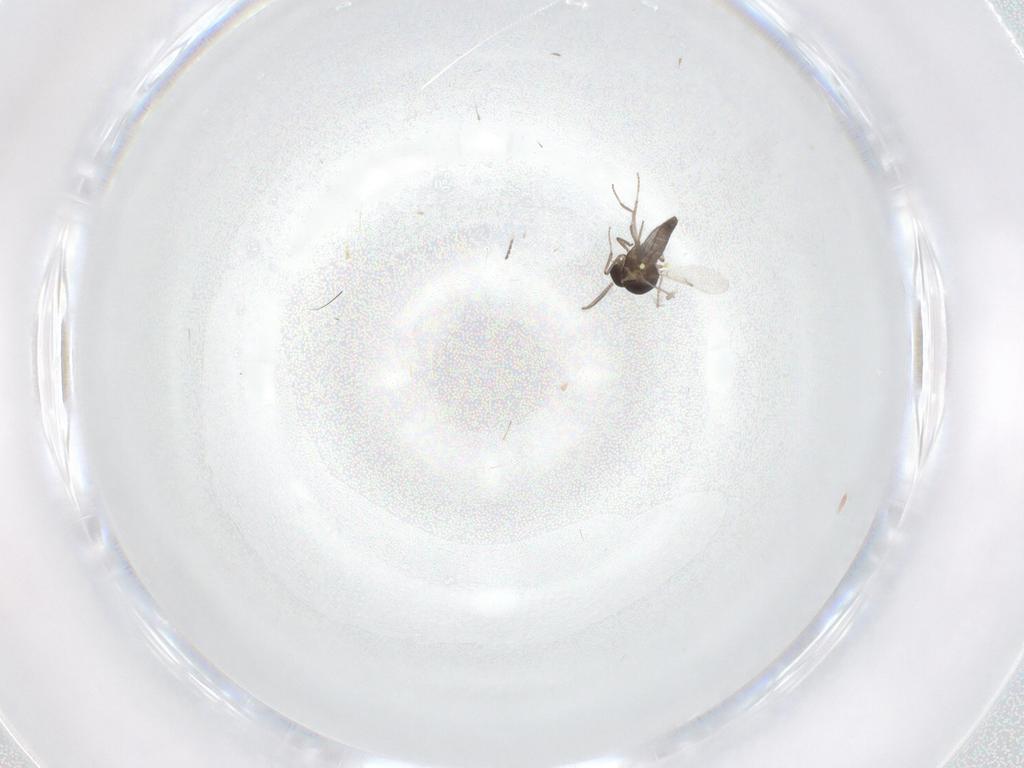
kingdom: Animalia
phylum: Arthropoda
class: Insecta
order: Diptera
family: Ceratopogonidae
